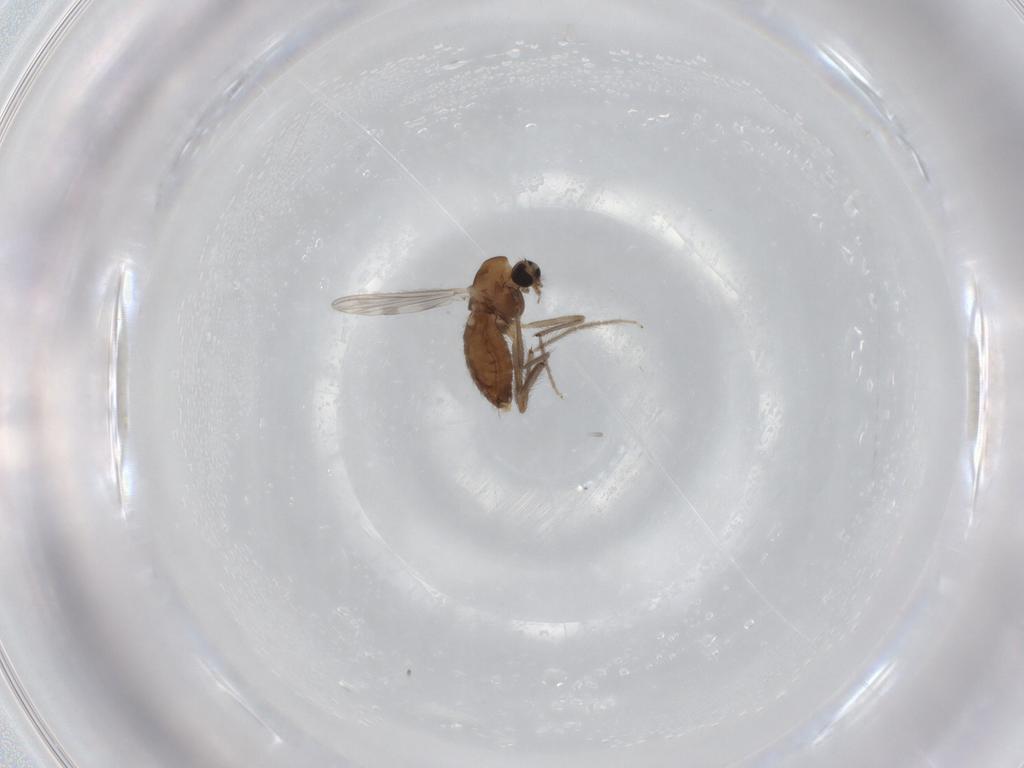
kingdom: Animalia
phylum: Arthropoda
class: Insecta
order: Diptera
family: Chironomidae
